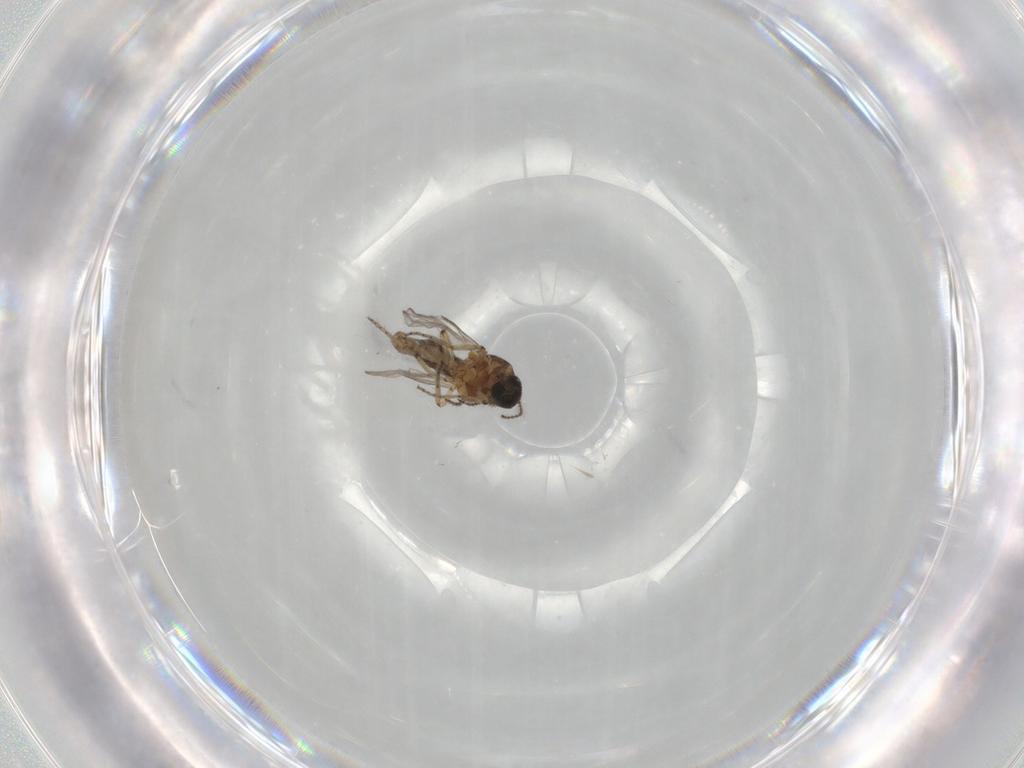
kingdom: Animalia
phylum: Arthropoda
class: Insecta
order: Diptera
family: Ceratopogonidae
